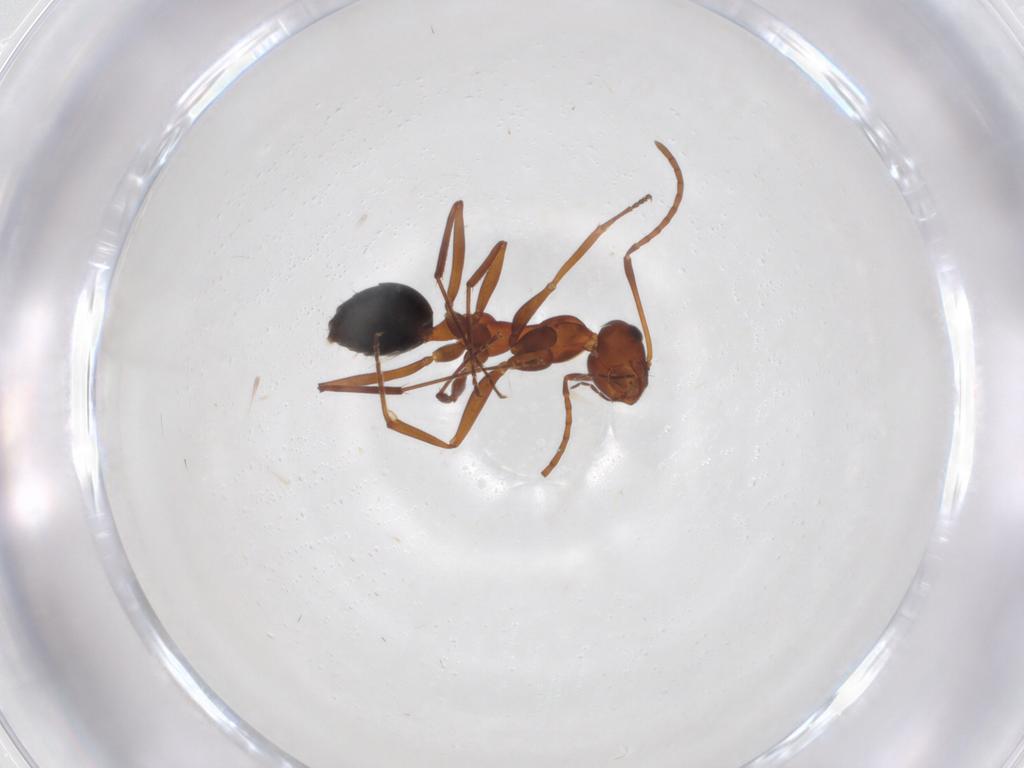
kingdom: Animalia
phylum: Arthropoda
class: Insecta
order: Hymenoptera
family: Formicidae
